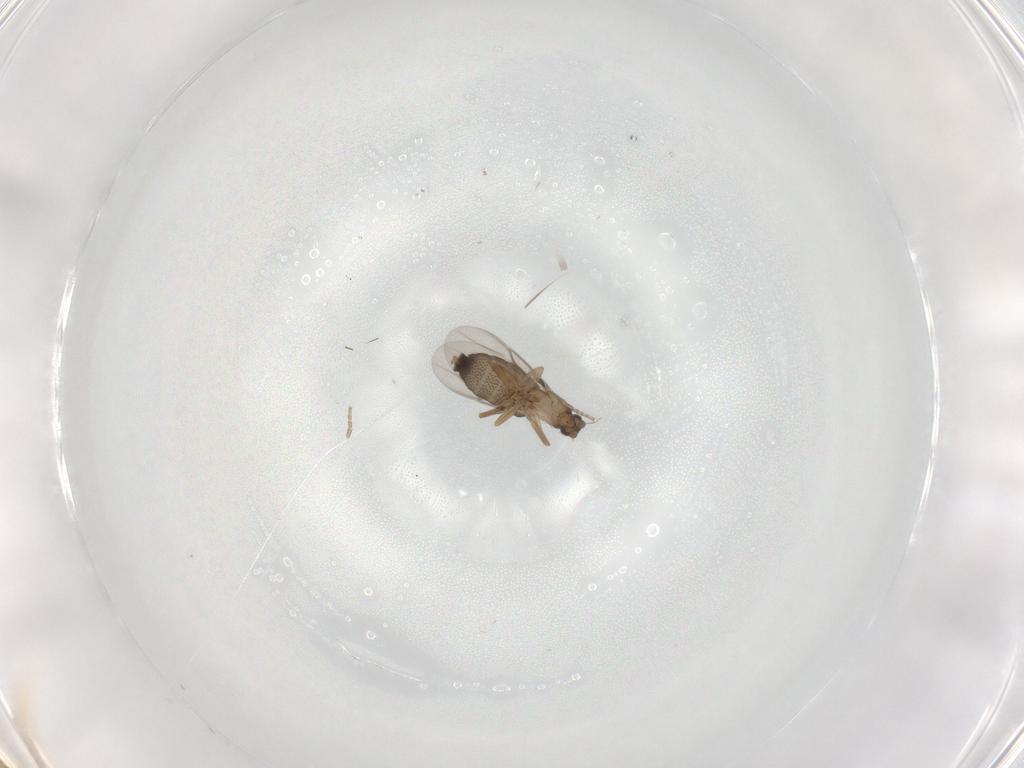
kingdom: Animalia
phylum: Arthropoda
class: Insecta
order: Diptera
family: Phoridae
